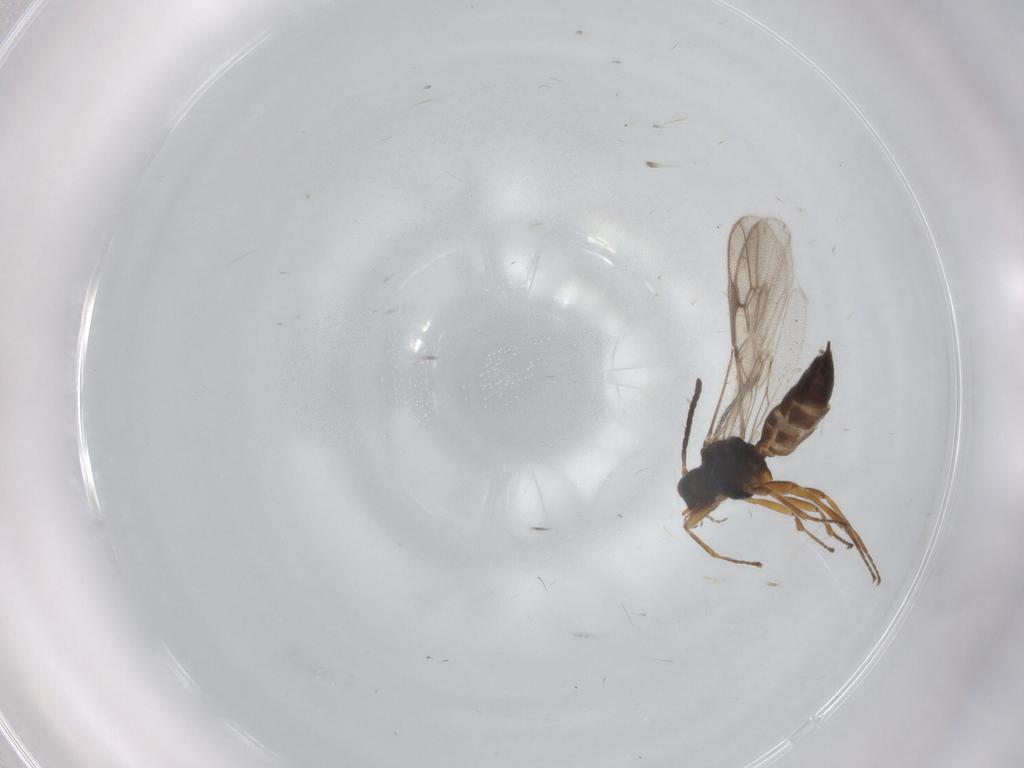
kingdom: Animalia
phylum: Arthropoda
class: Insecta
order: Hymenoptera
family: Braconidae
